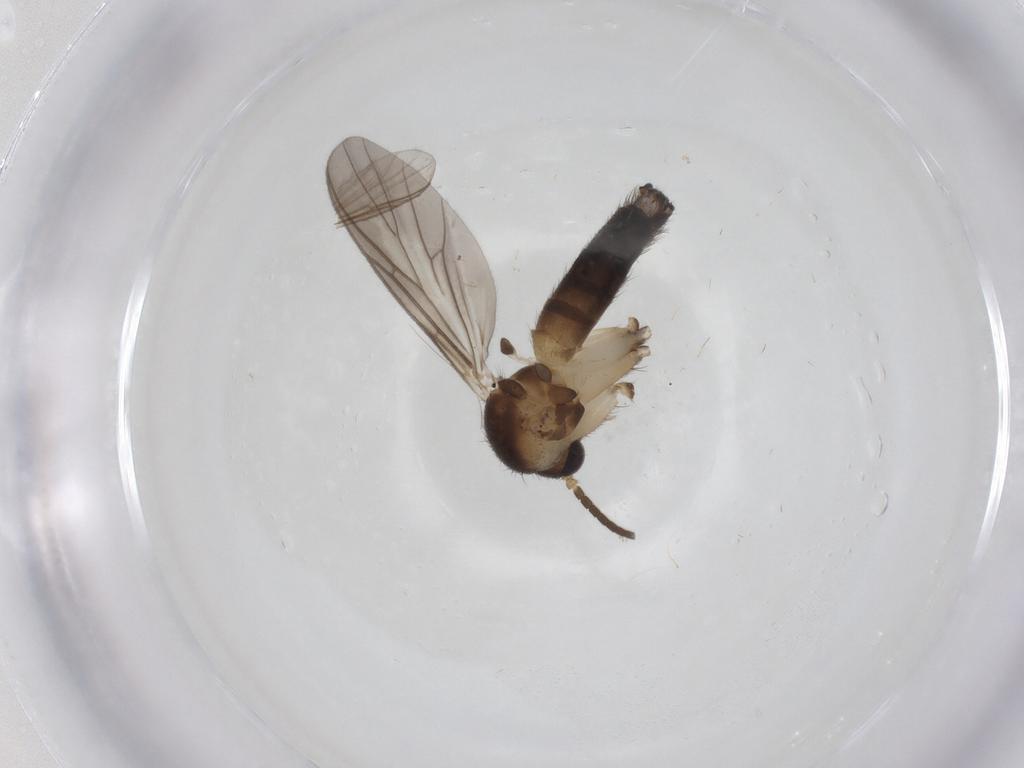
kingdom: Animalia
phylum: Arthropoda
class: Insecta
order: Diptera
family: Mycetophilidae
